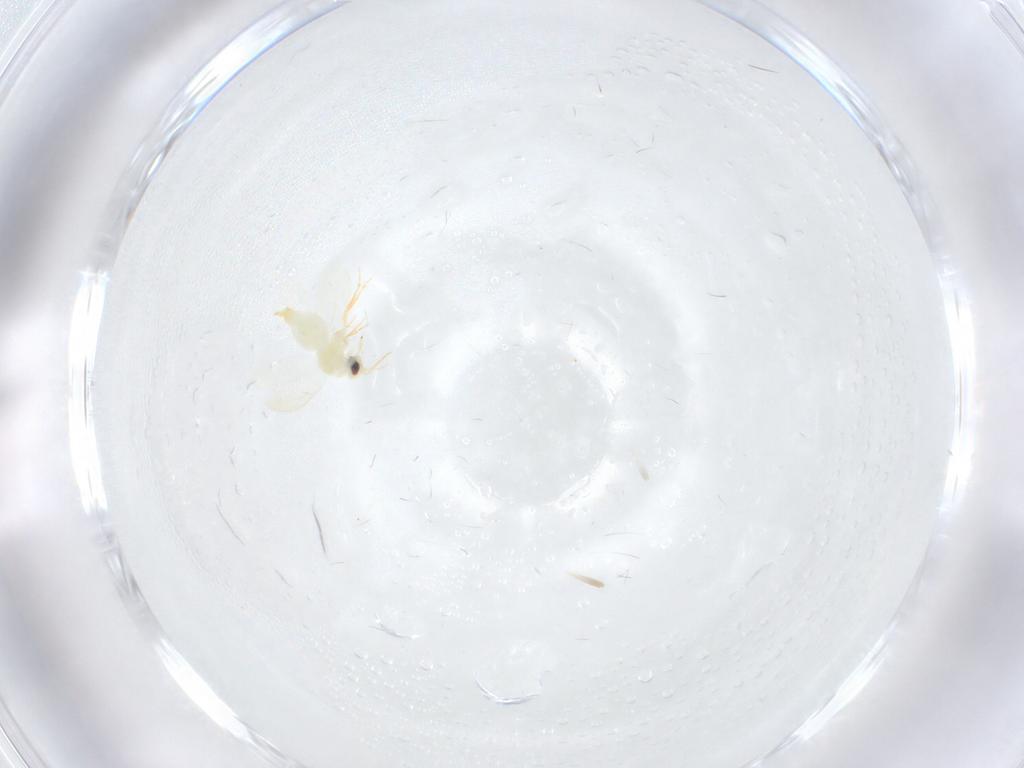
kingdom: Animalia
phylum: Arthropoda
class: Insecta
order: Hemiptera
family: Aleyrodidae
